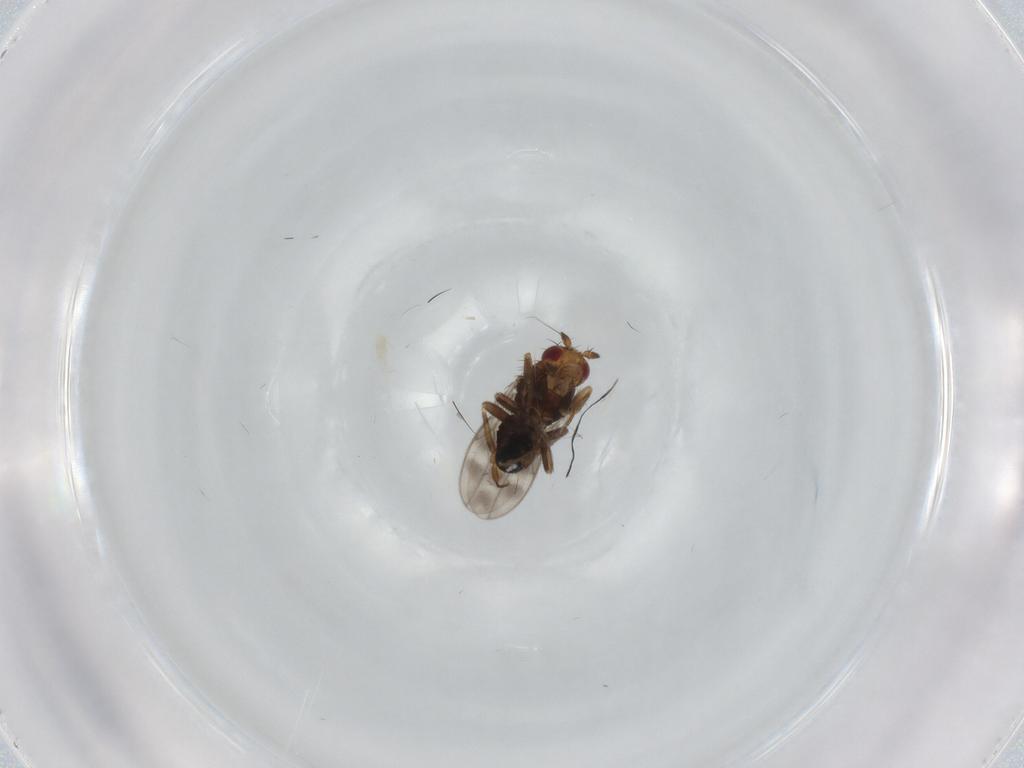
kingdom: Animalia
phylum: Arthropoda
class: Insecta
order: Diptera
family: Sphaeroceridae
